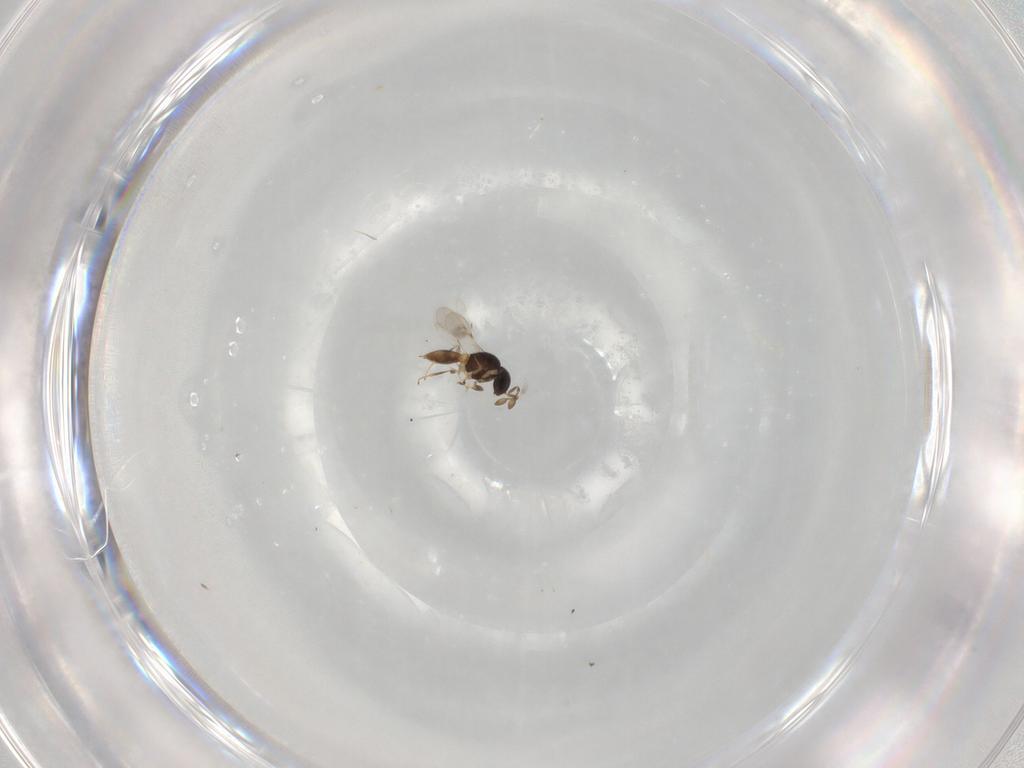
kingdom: Animalia
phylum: Arthropoda
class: Insecta
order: Hymenoptera
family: Scelionidae
